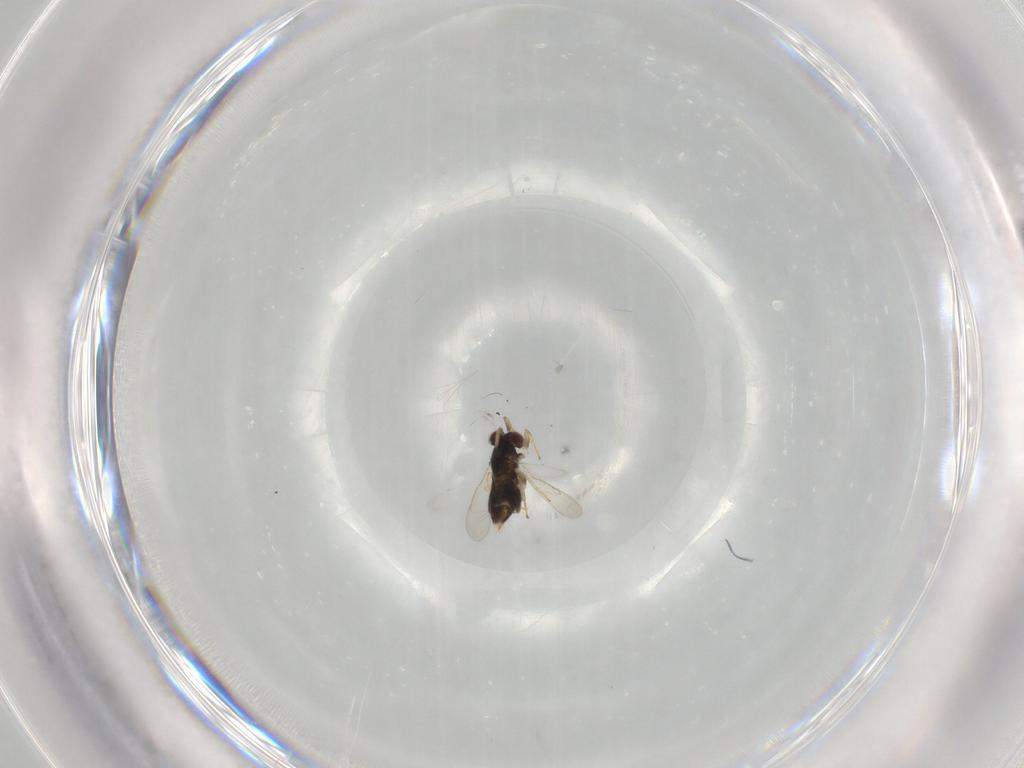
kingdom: Animalia
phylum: Arthropoda
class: Insecta
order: Hymenoptera
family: Aphelinidae
